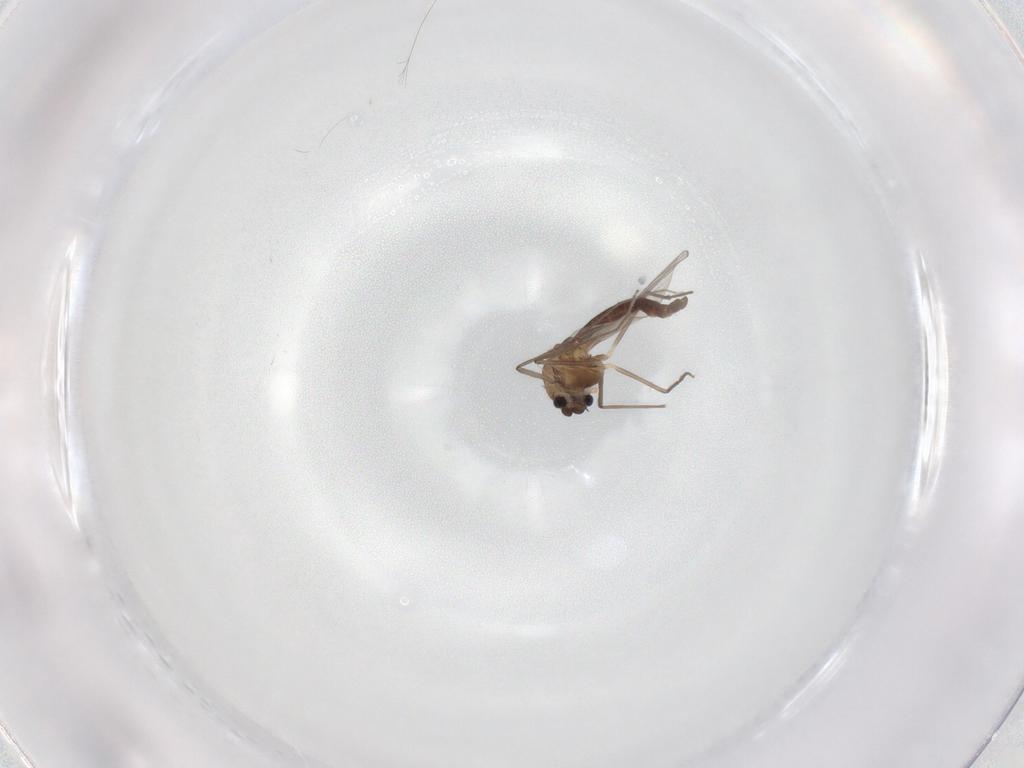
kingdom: Animalia
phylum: Arthropoda
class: Insecta
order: Diptera
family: Chironomidae
